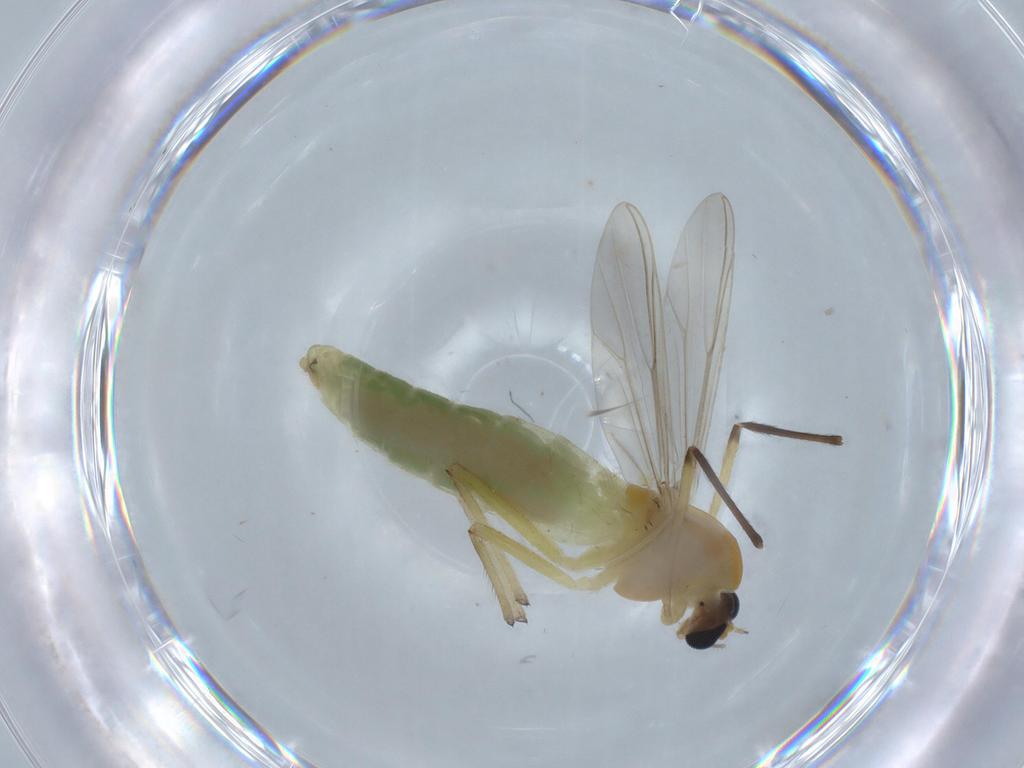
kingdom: Animalia
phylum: Arthropoda
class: Insecta
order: Diptera
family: Chironomidae
